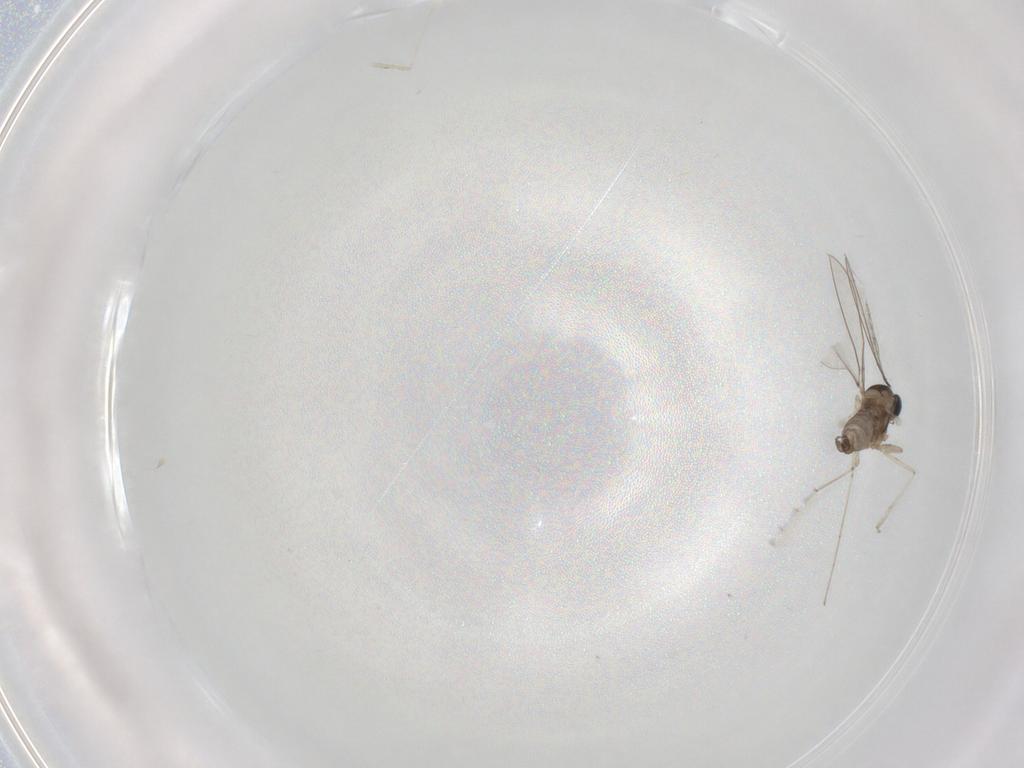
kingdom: Animalia
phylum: Arthropoda
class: Insecta
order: Diptera
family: Cecidomyiidae
